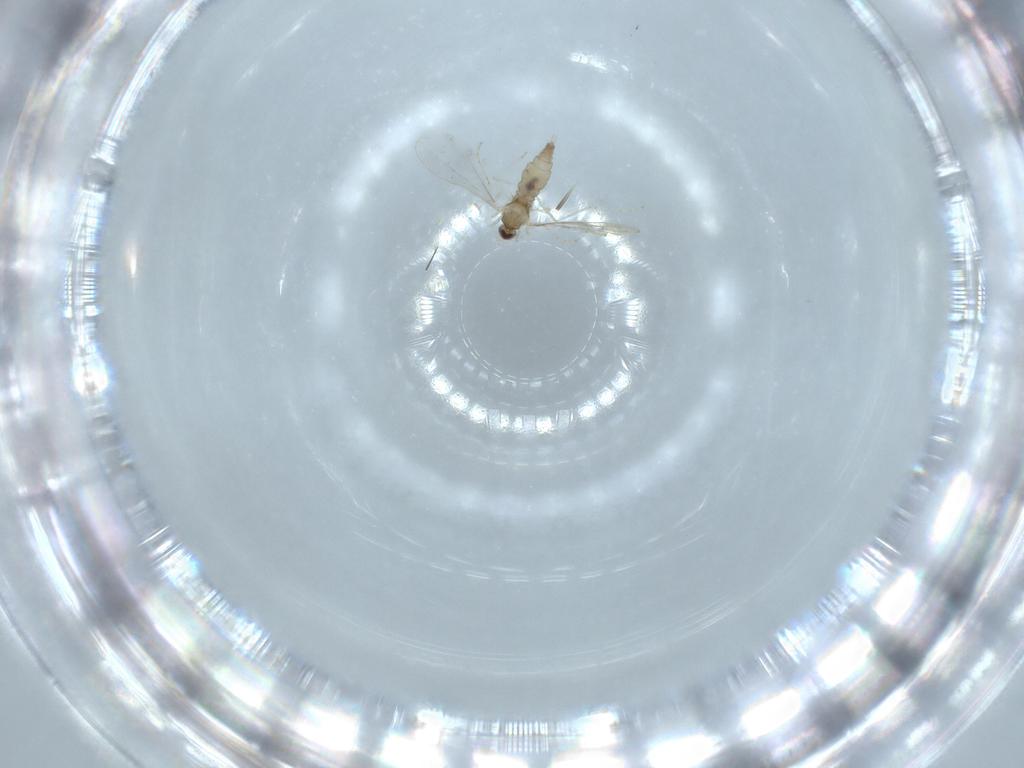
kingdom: Animalia
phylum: Arthropoda
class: Insecta
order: Diptera
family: Cecidomyiidae
